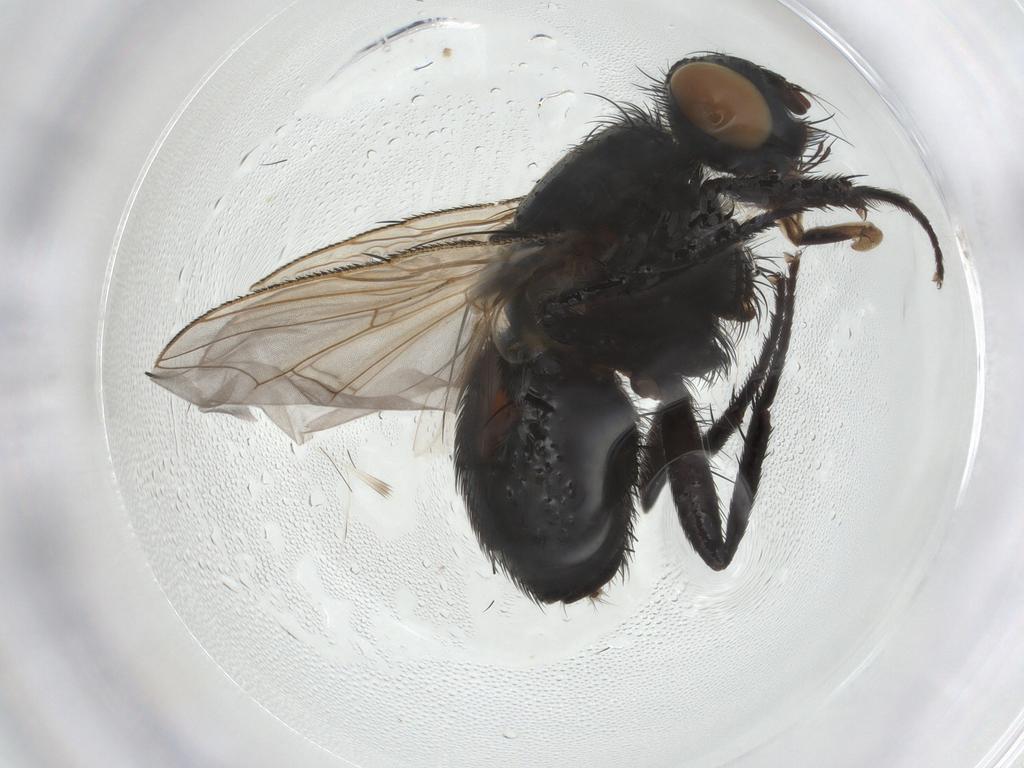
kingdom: Animalia
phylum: Arthropoda
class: Insecta
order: Diptera
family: Sarcophagidae
